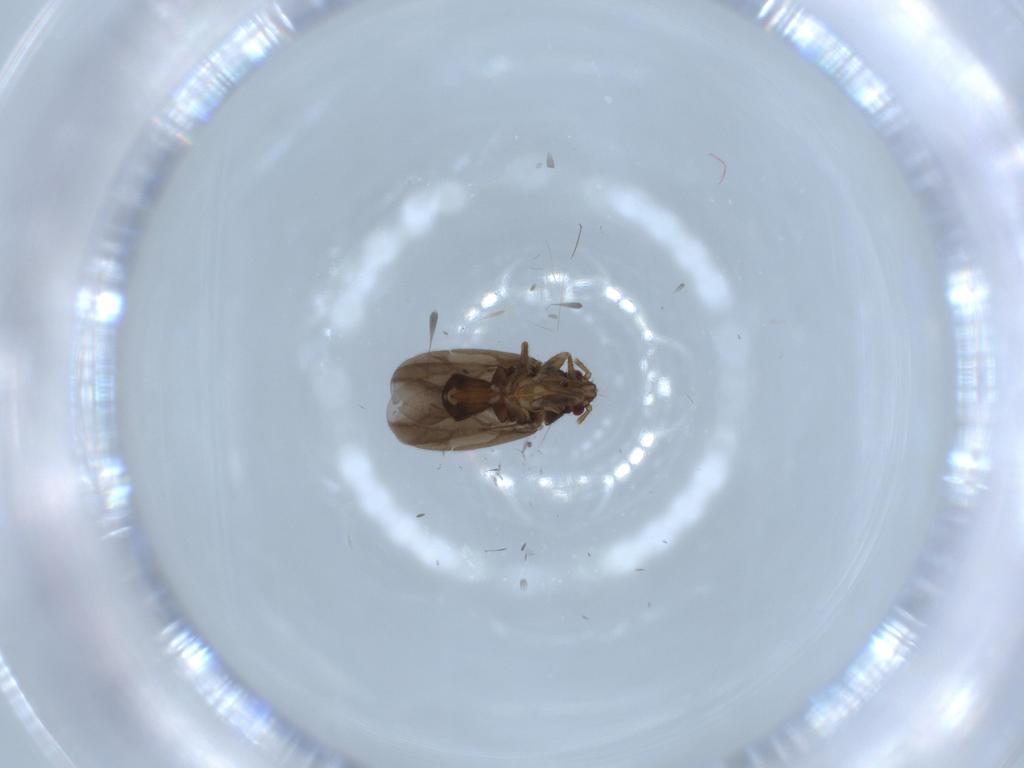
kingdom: Animalia
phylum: Arthropoda
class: Insecta
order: Hemiptera
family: Ceratocombidae
